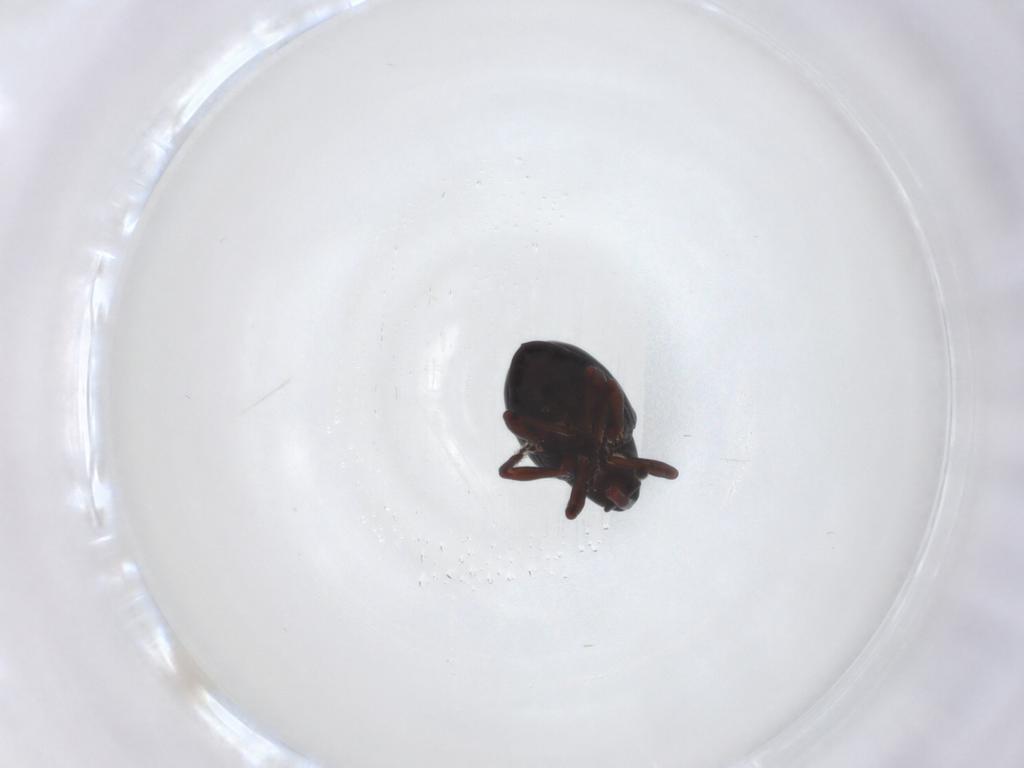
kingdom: Animalia
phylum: Arthropoda
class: Insecta
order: Coleoptera
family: Curculionidae
